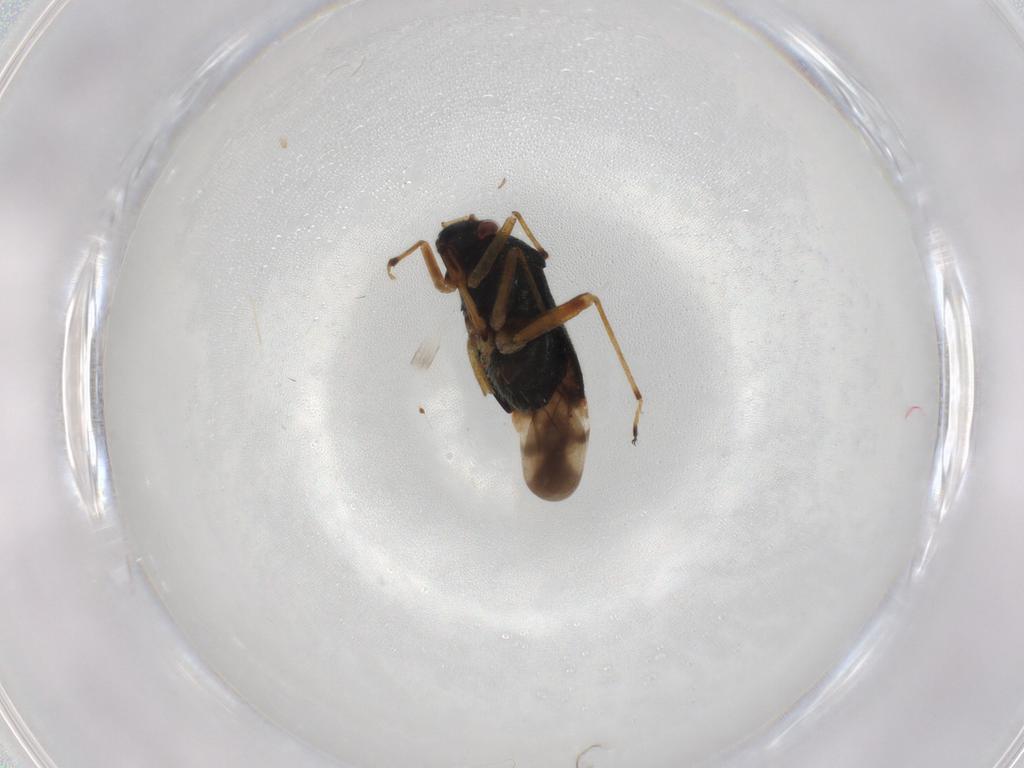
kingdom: Animalia
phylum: Arthropoda
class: Insecta
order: Hemiptera
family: Miridae
